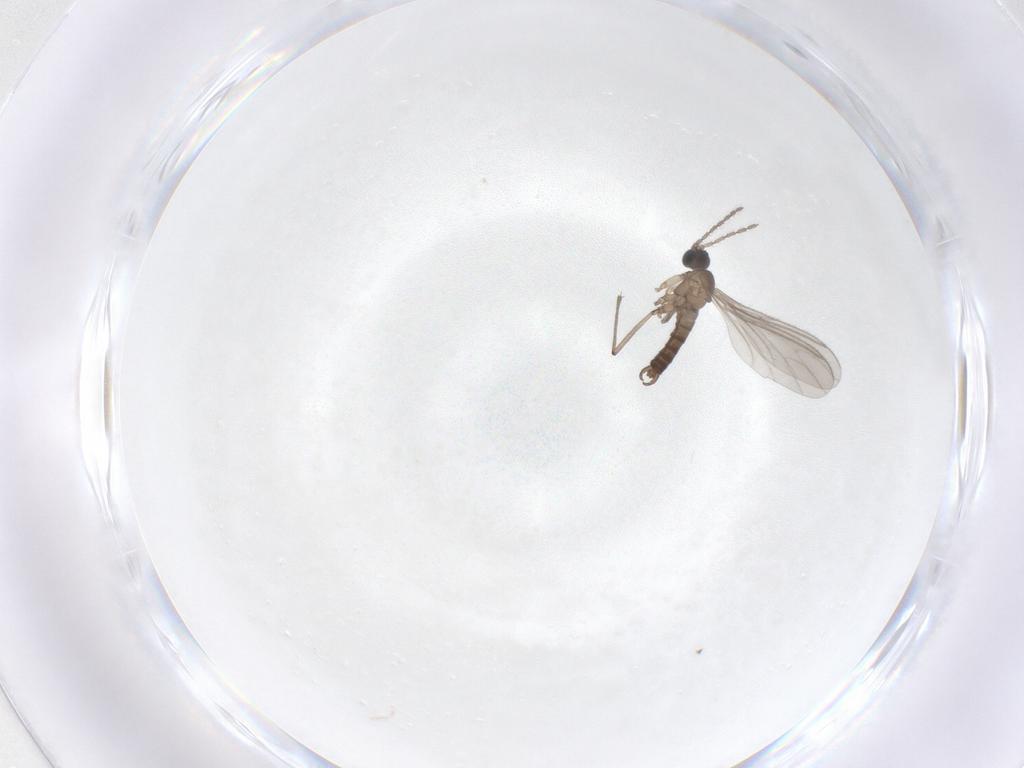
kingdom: Animalia
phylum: Arthropoda
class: Insecta
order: Diptera
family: Sciaridae
